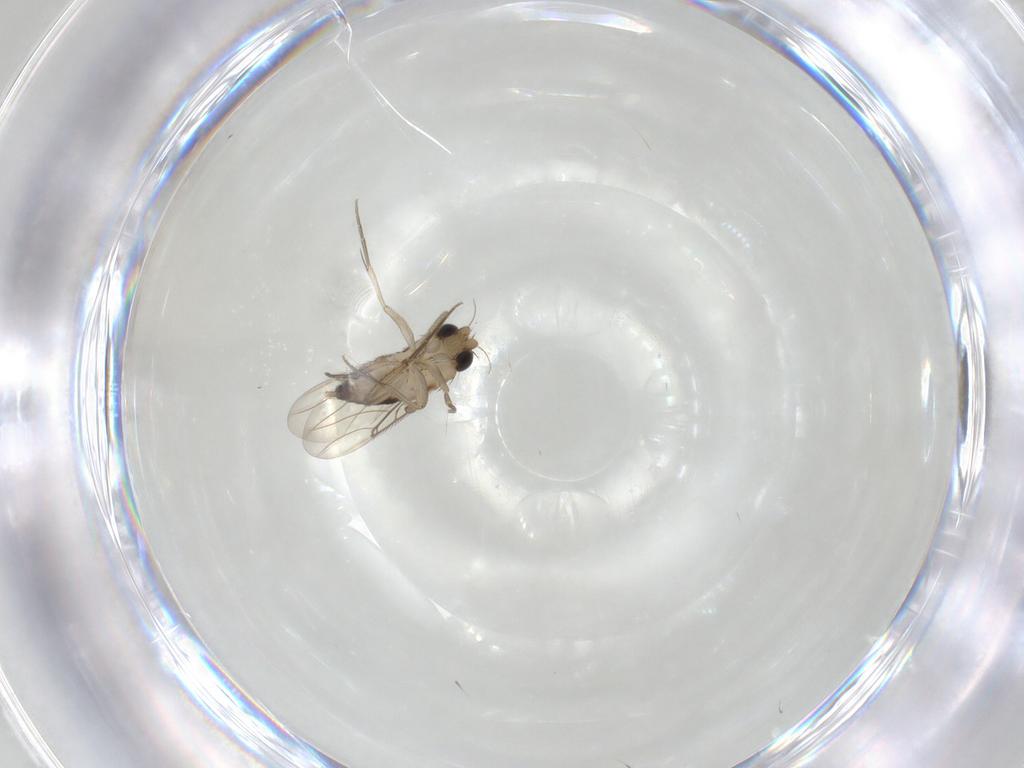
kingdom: Animalia
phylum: Arthropoda
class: Insecta
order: Diptera
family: Phoridae
